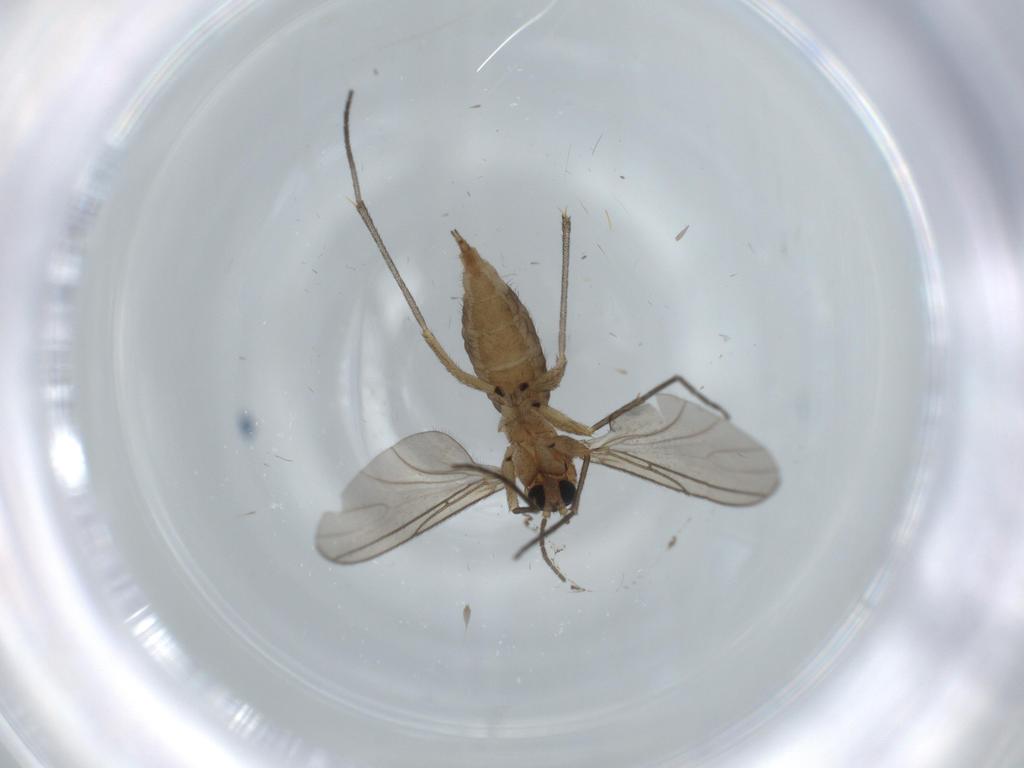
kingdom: Animalia
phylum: Arthropoda
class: Insecta
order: Diptera
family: Sciaridae
